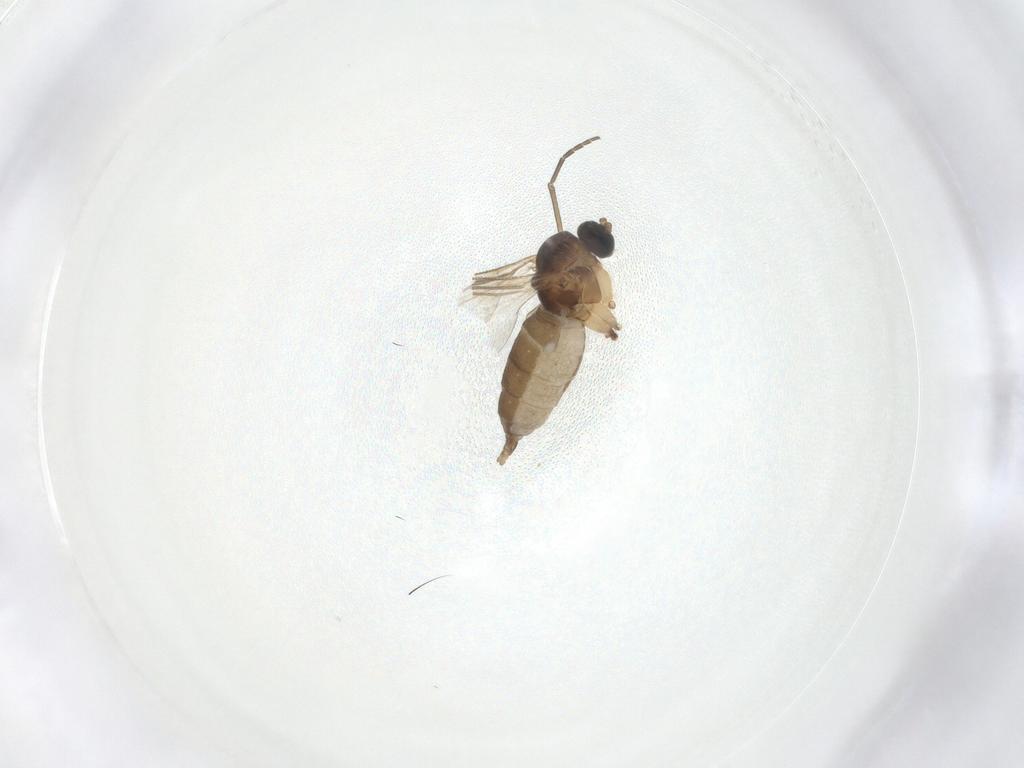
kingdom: Animalia
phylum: Arthropoda
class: Insecta
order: Diptera
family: Sciaridae
